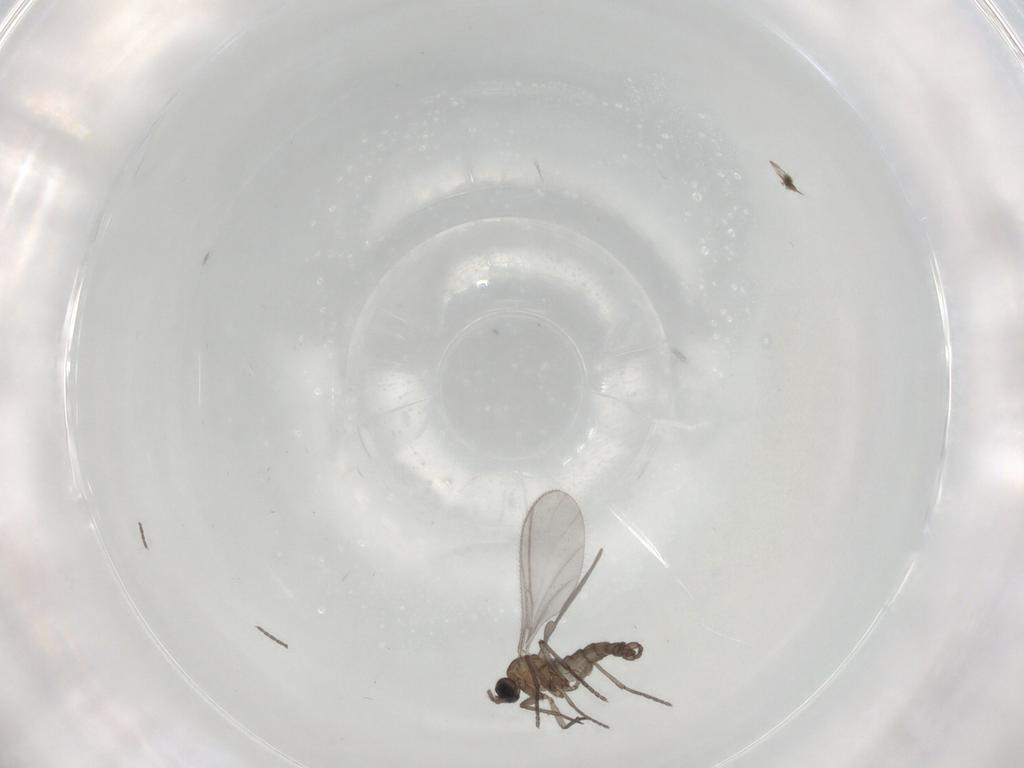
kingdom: Animalia
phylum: Arthropoda
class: Insecta
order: Diptera
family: Sciaridae
